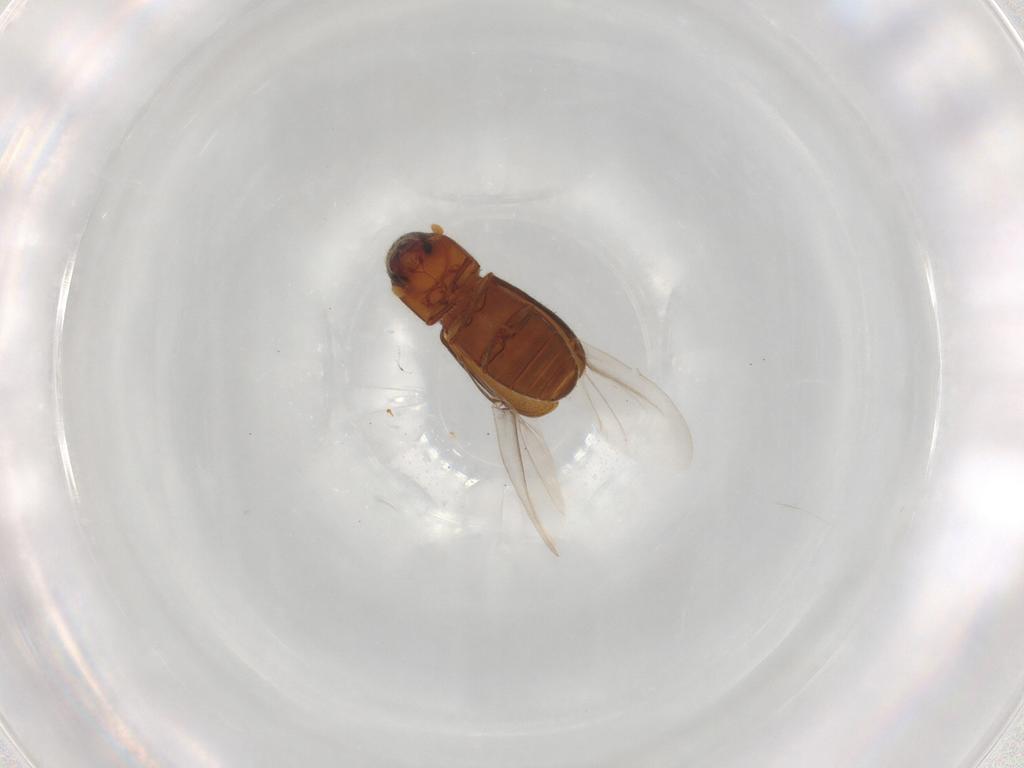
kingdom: Animalia
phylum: Arthropoda
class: Insecta
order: Coleoptera
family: Curculionidae
